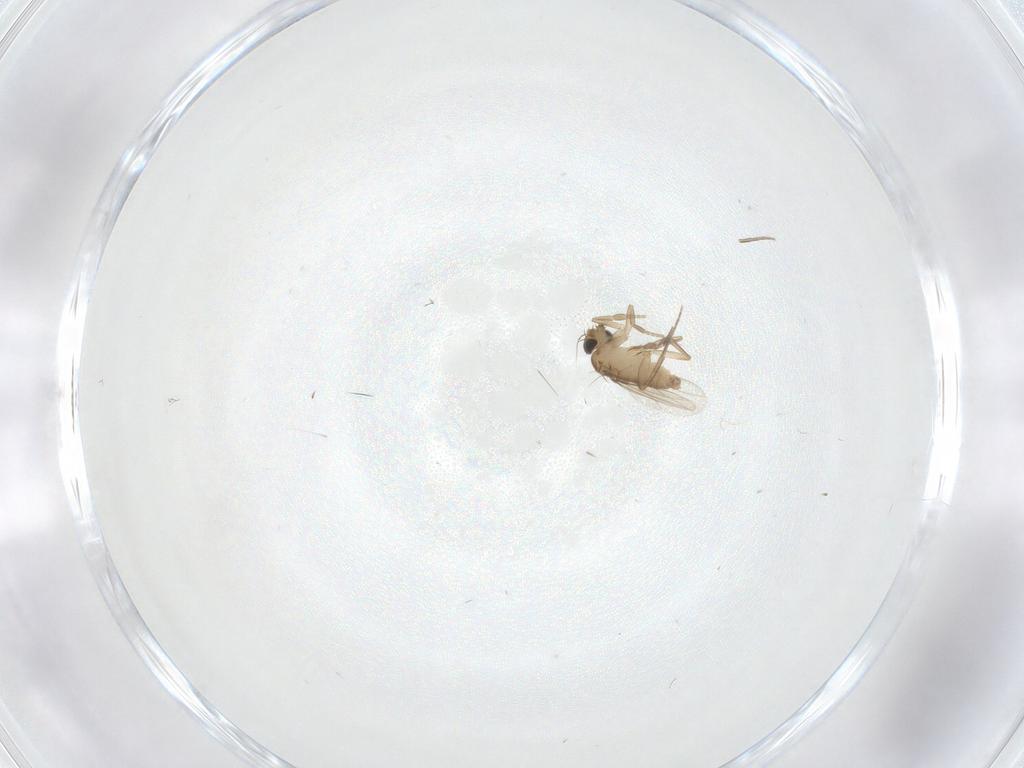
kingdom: Animalia
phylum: Arthropoda
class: Insecta
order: Diptera
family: Phoridae
